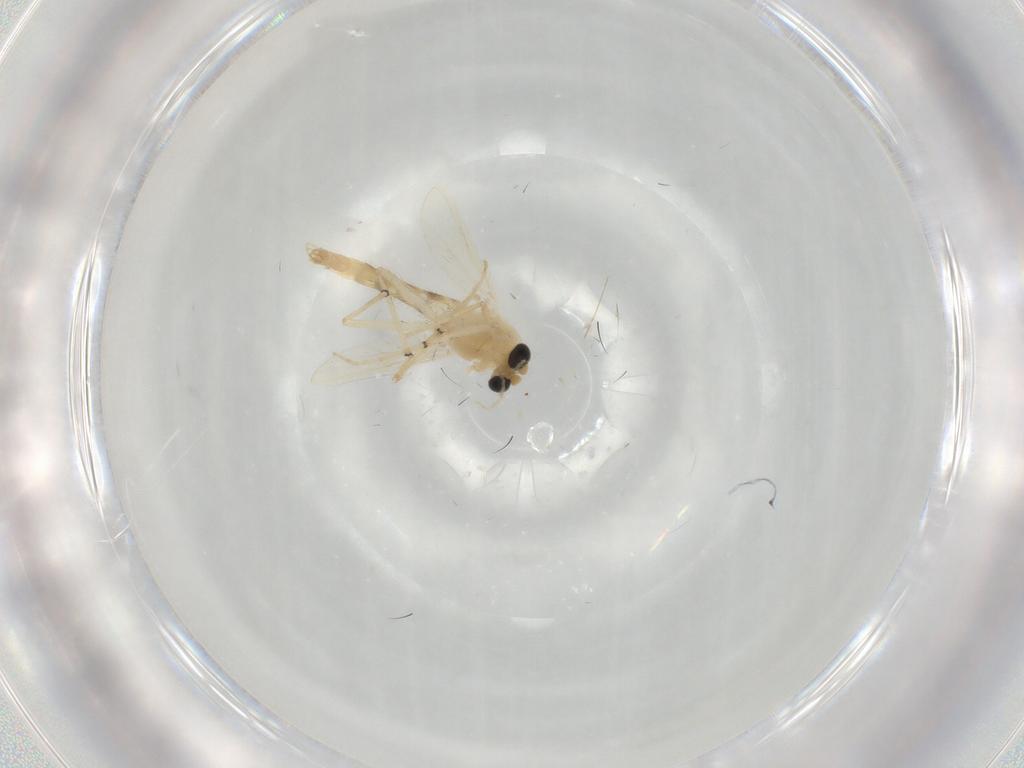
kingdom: Animalia
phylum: Arthropoda
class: Insecta
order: Diptera
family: Chironomidae
